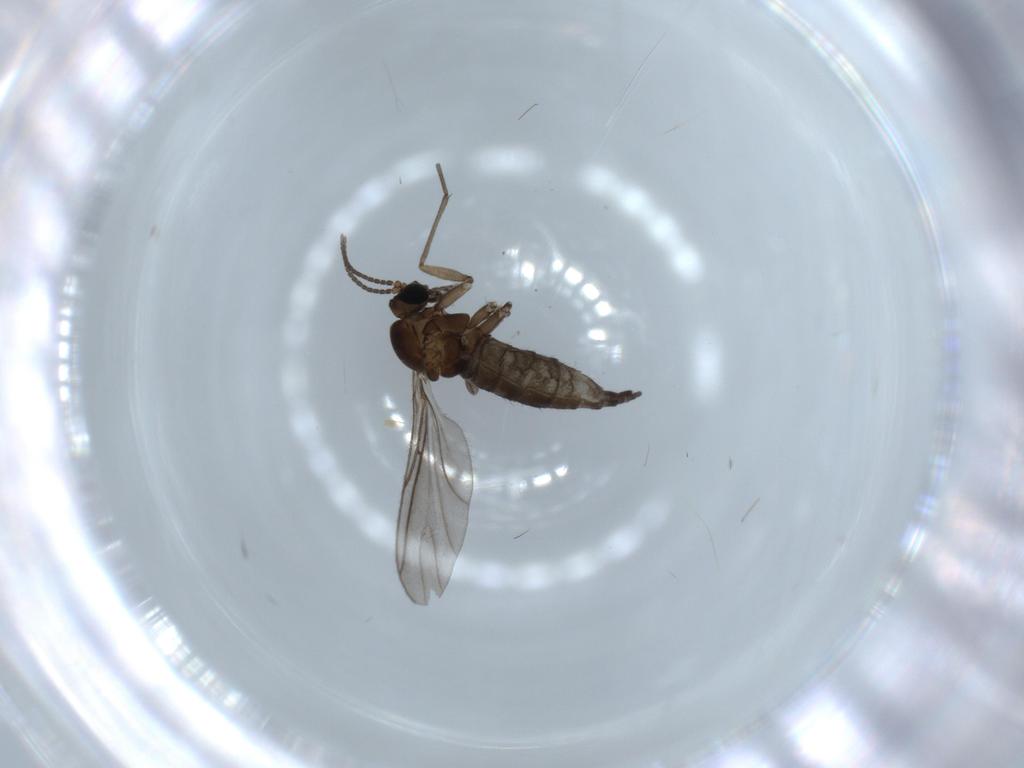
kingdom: Animalia
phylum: Arthropoda
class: Insecta
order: Diptera
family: Sciaridae
